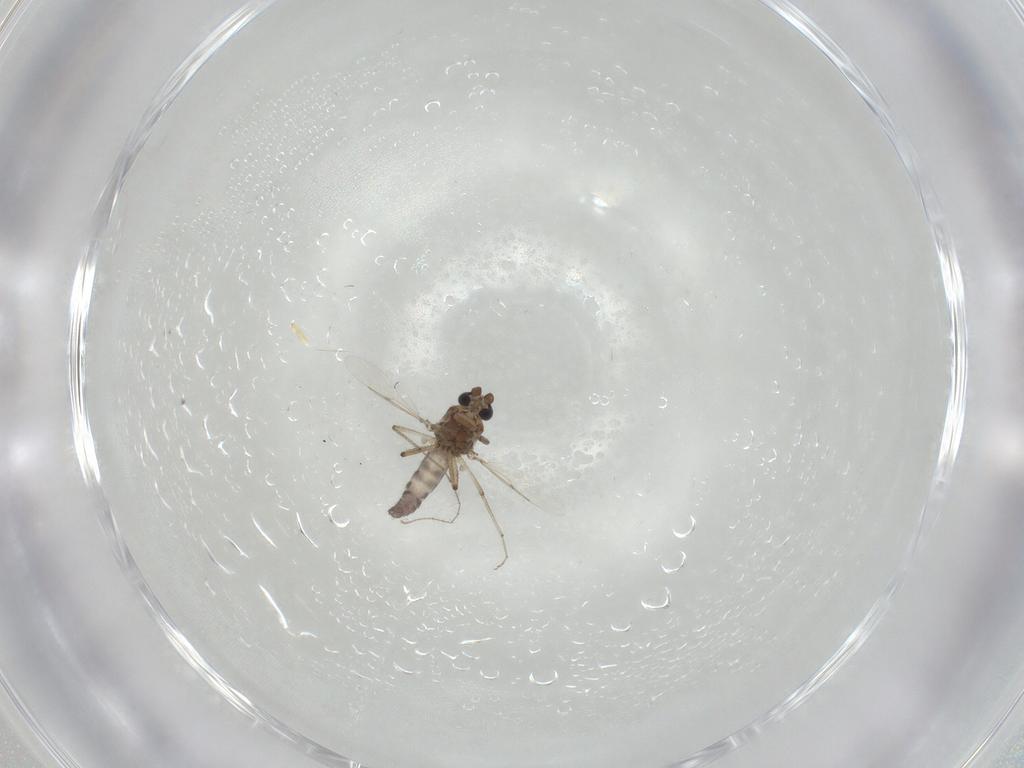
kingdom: Animalia
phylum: Arthropoda
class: Insecta
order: Diptera
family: Ceratopogonidae
